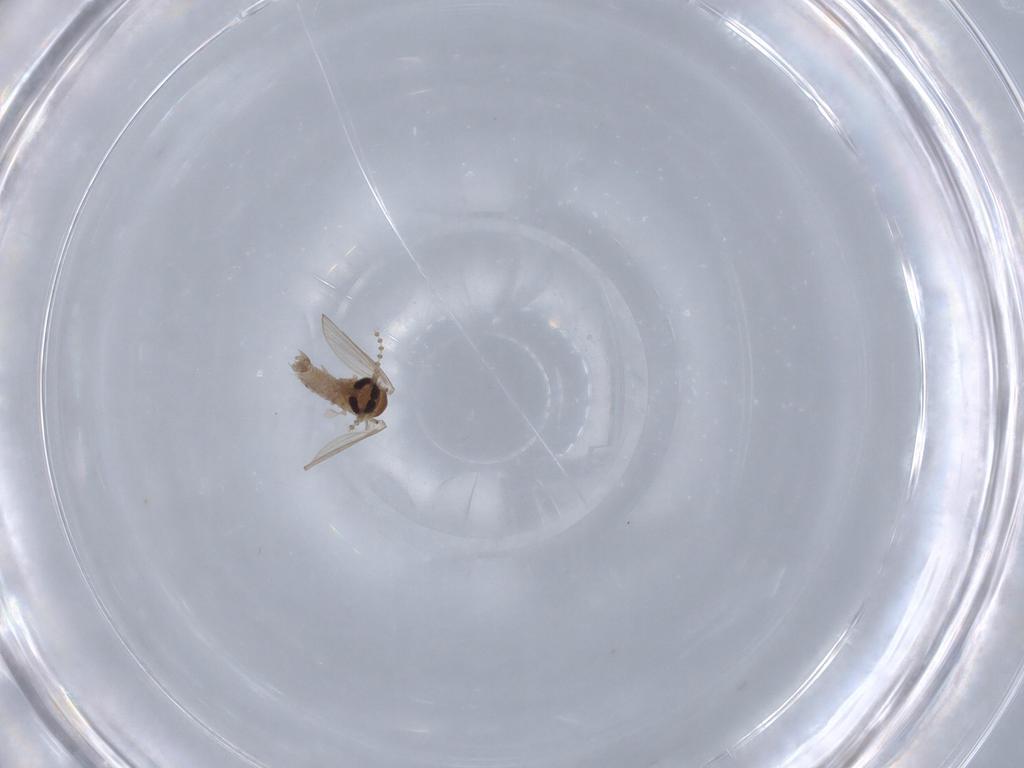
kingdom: Animalia
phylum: Arthropoda
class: Insecta
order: Diptera
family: Psychodidae
